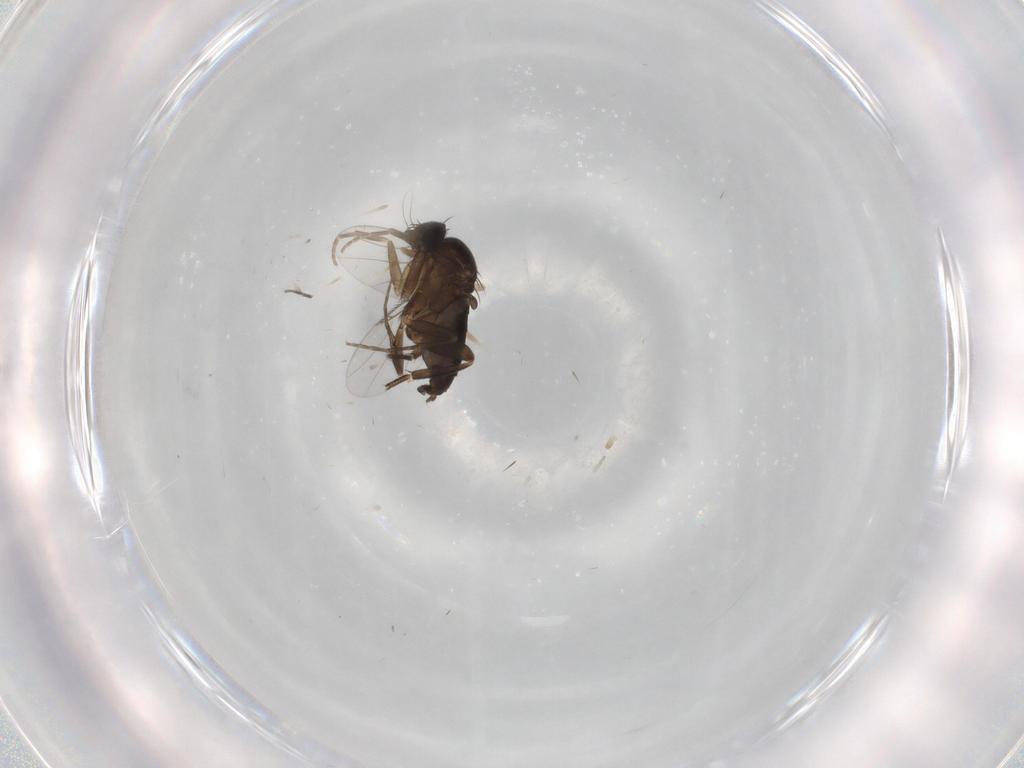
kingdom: Animalia
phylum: Arthropoda
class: Insecta
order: Diptera
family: Phoridae
